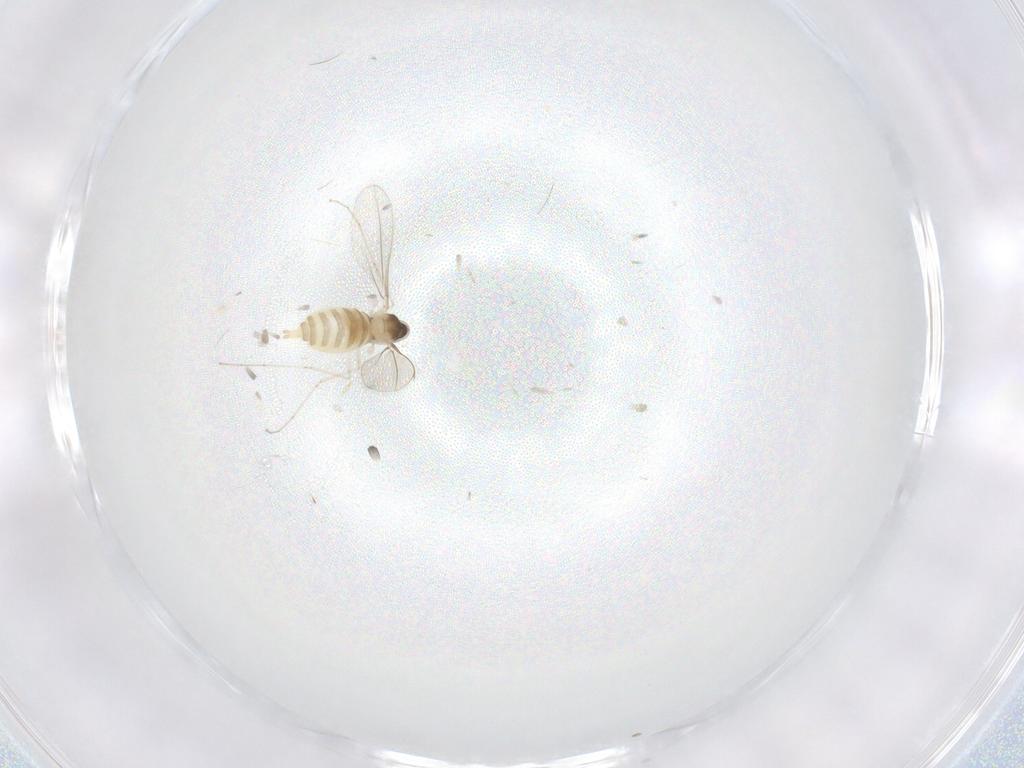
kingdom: Animalia
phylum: Arthropoda
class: Insecta
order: Diptera
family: Cecidomyiidae
